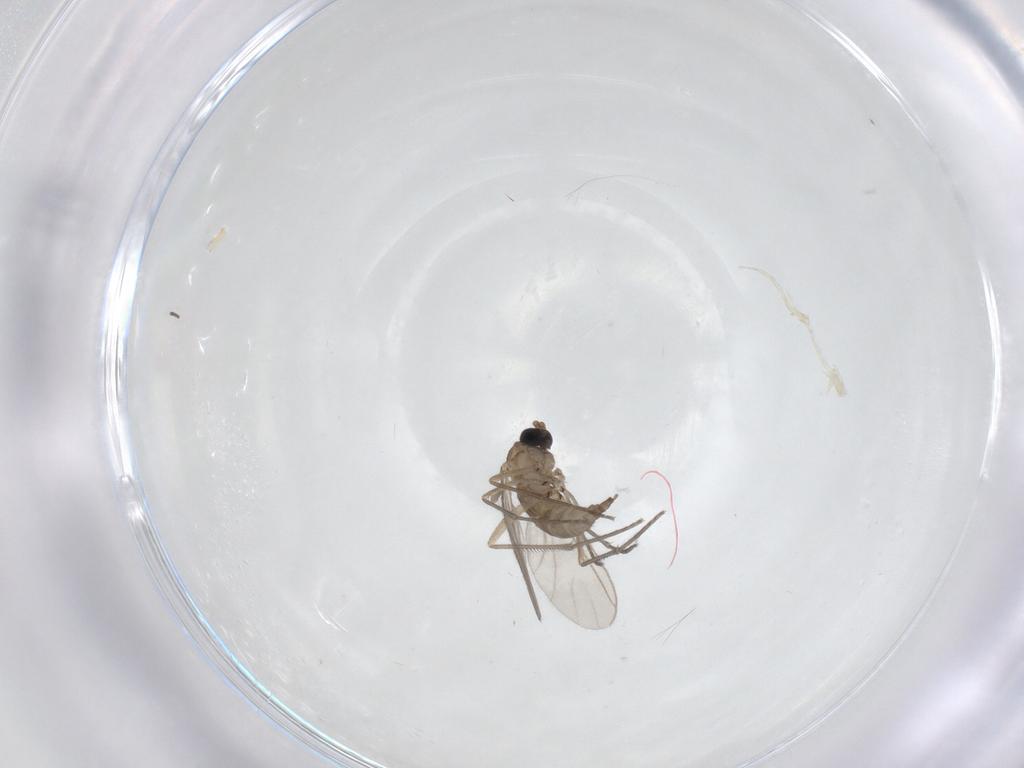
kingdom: Animalia
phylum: Arthropoda
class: Insecta
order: Diptera
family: Sciaridae
